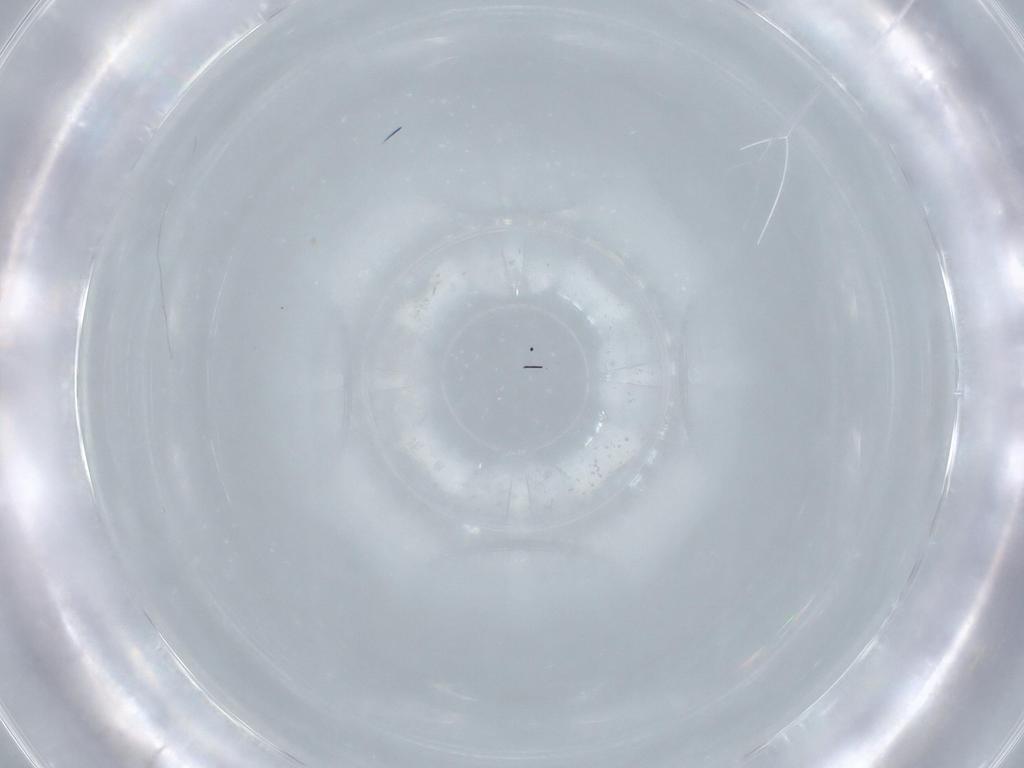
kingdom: Animalia
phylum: Arthropoda
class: Insecta
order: Hymenoptera
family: Mymaridae
